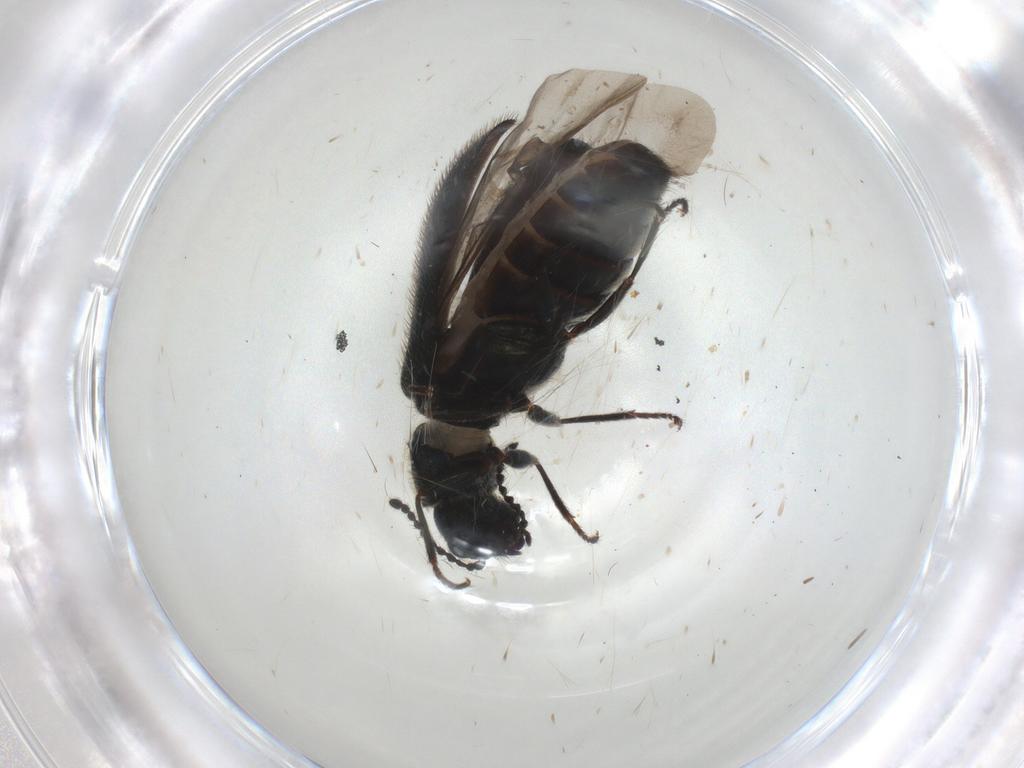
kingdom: Animalia
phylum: Arthropoda
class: Insecta
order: Coleoptera
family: Melyridae
